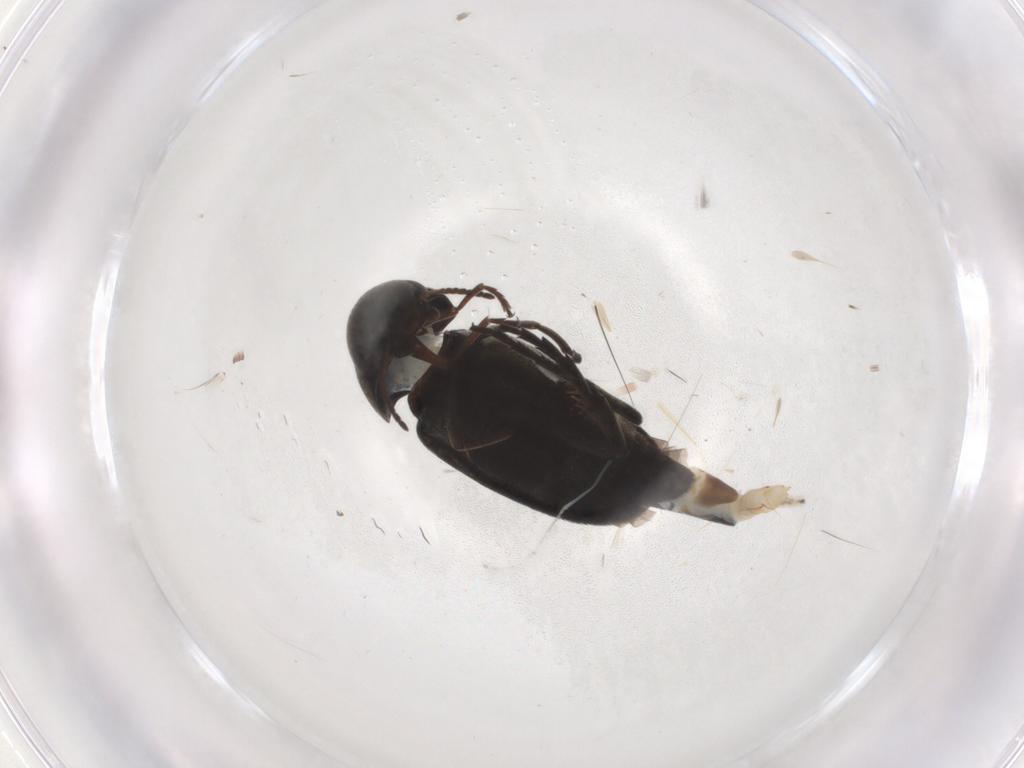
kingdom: Animalia
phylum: Arthropoda
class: Insecta
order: Coleoptera
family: Mordellidae
